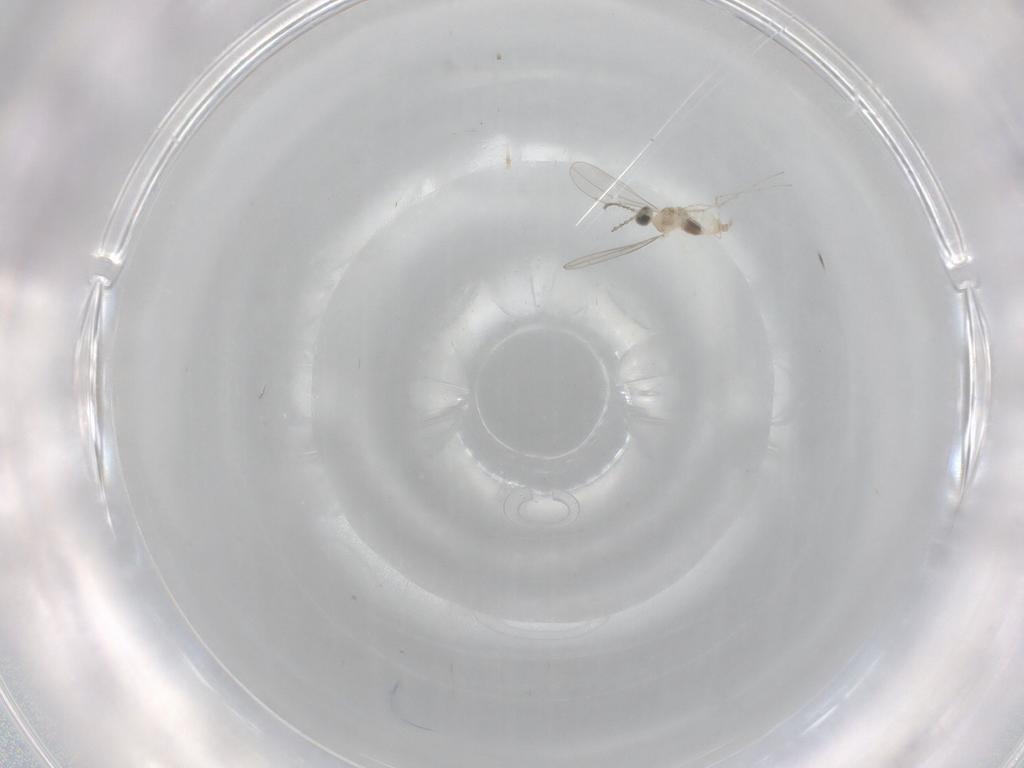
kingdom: Animalia
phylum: Arthropoda
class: Insecta
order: Diptera
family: Cecidomyiidae
